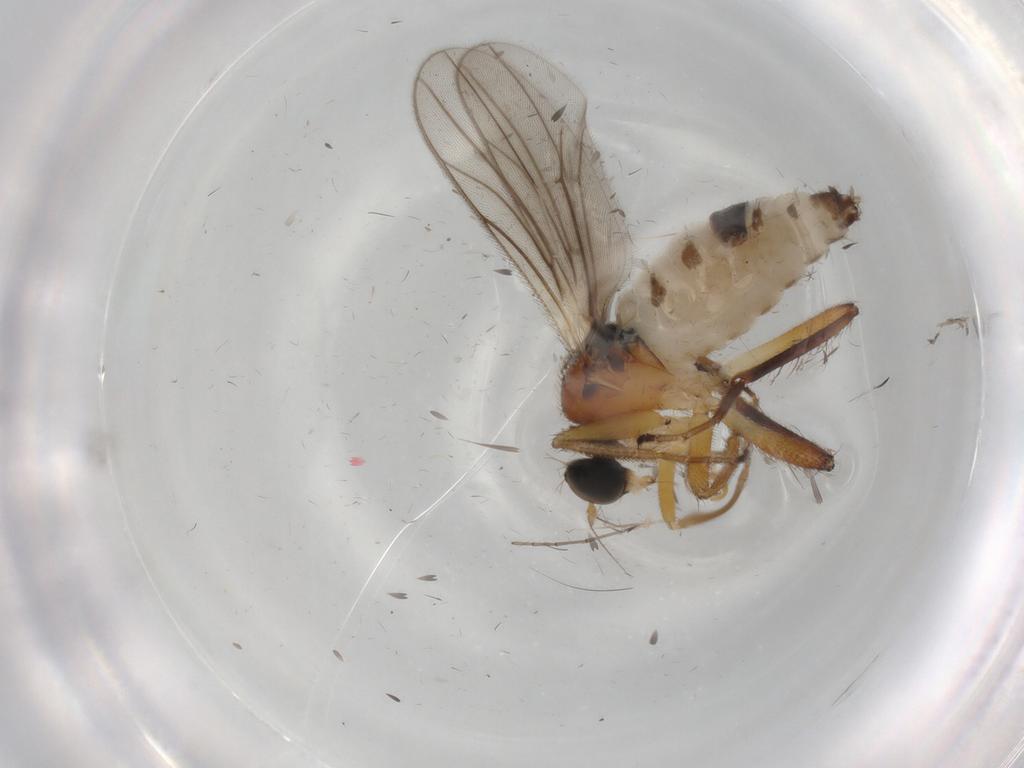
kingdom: Animalia
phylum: Arthropoda
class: Insecta
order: Diptera
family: Hybotidae
